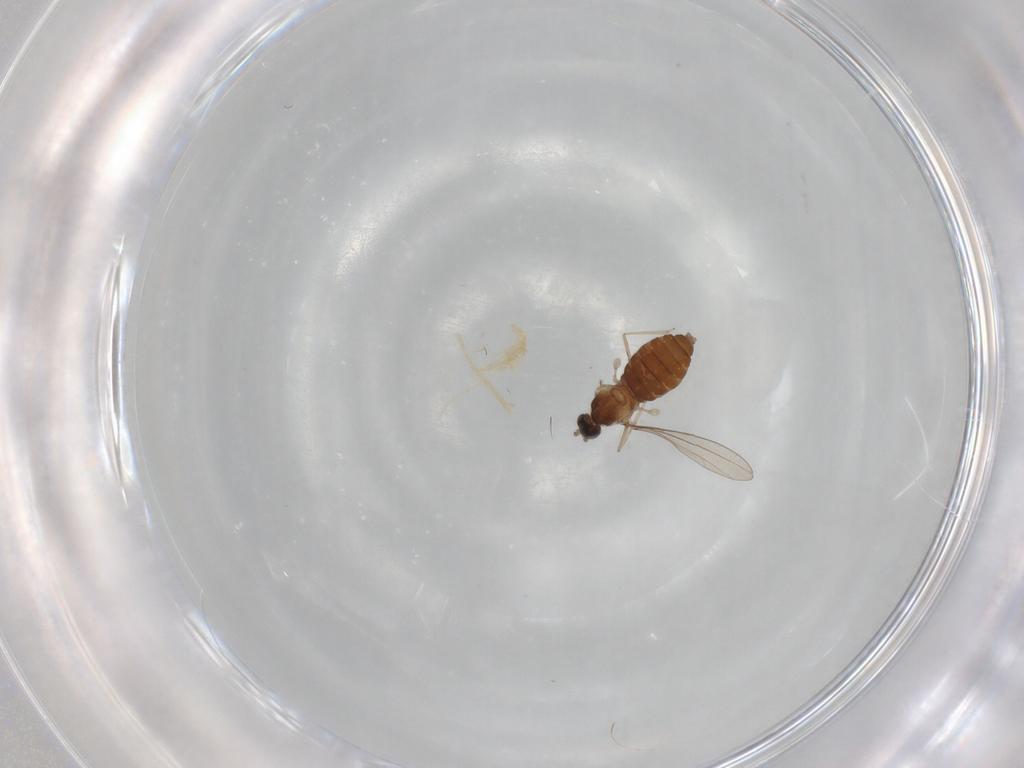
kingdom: Animalia
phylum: Arthropoda
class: Insecta
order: Diptera
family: Cecidomyiidae
